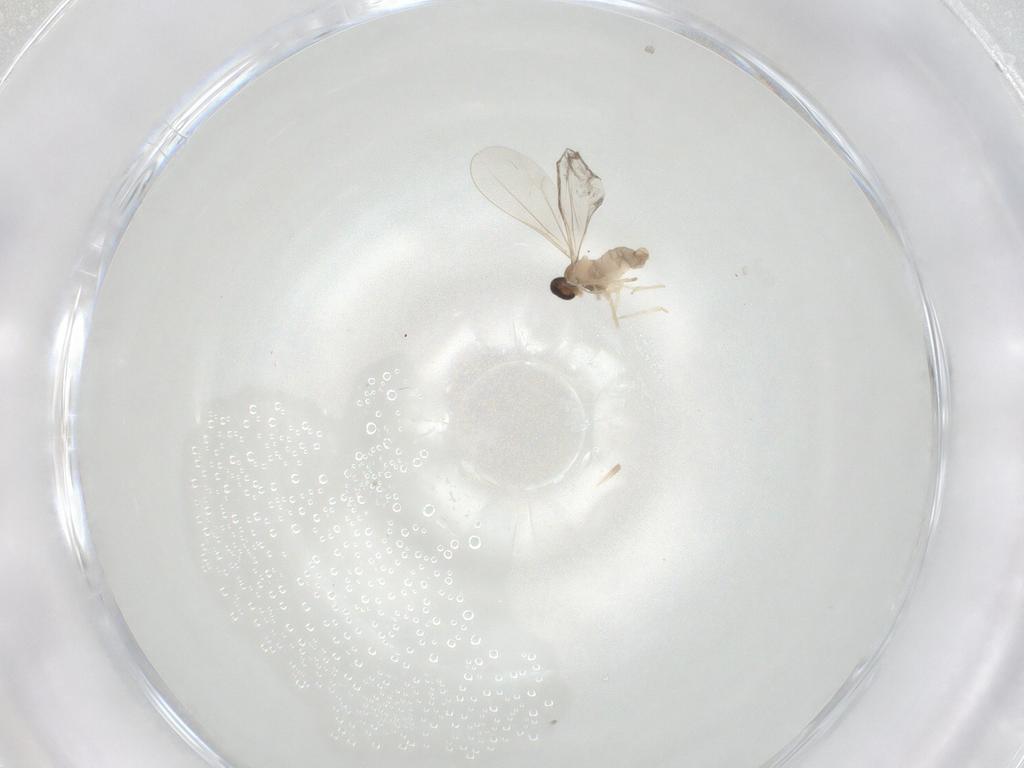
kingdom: Animalia
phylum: Arthropoda
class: Insecta
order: Diptera
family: Cecidomyiidae
